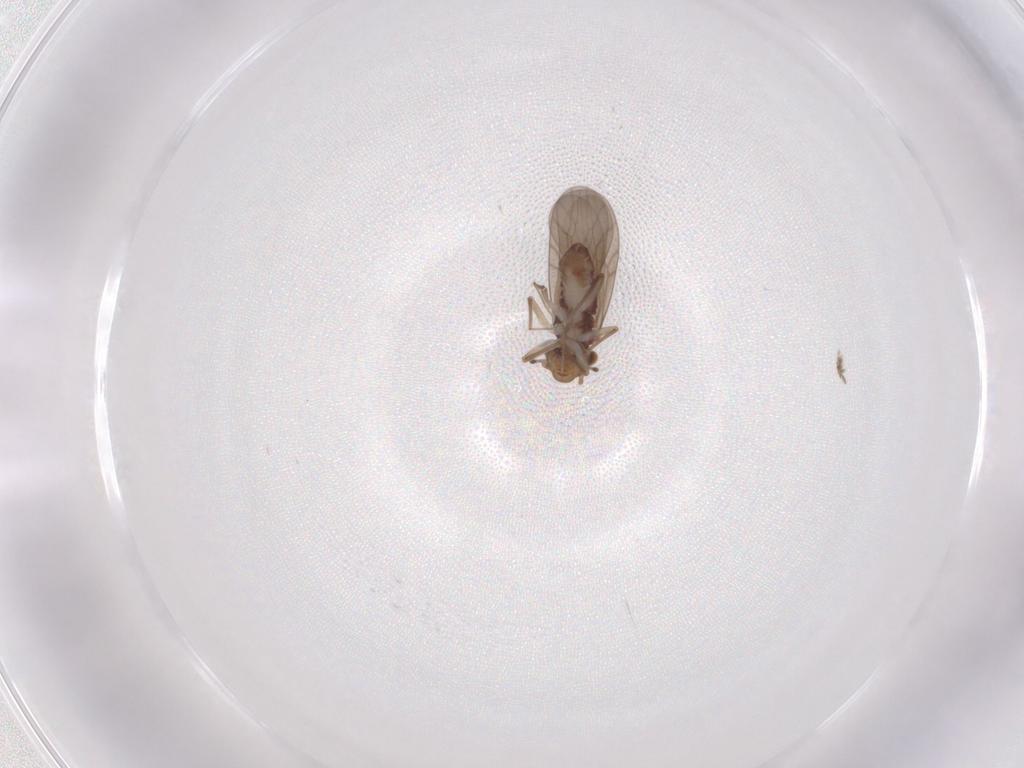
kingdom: Animalia
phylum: Arthropoda
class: Insecta
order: Psocodea
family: Lepidopsocidae
